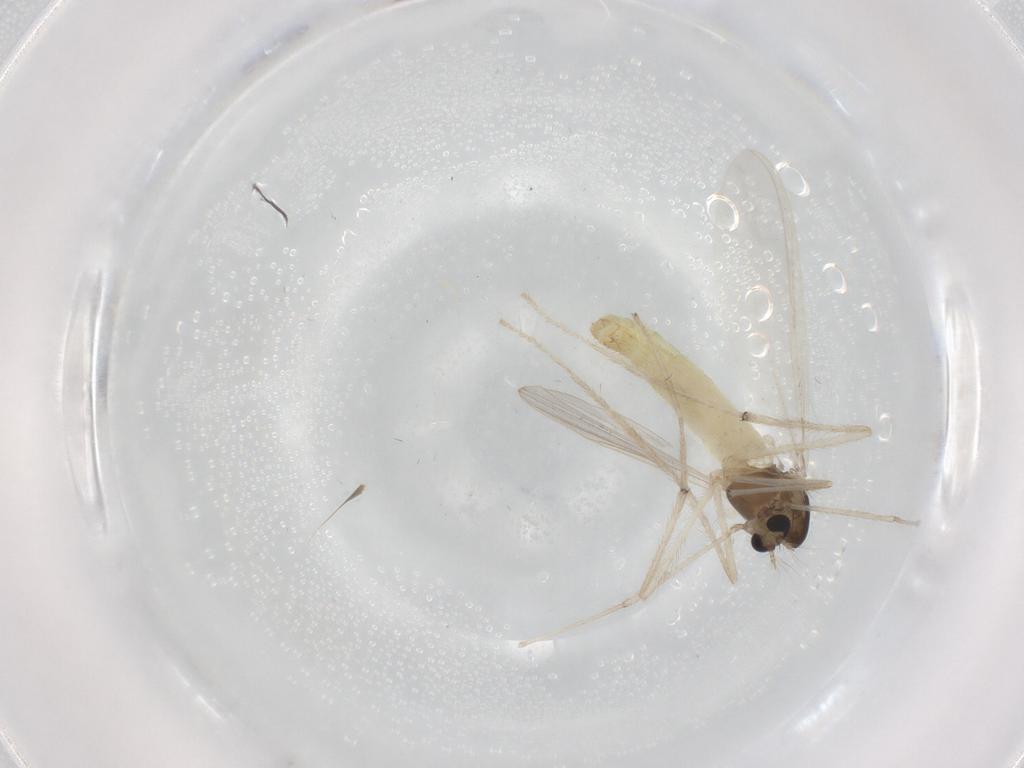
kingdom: Animalia
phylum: Arthropoda
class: Insecta
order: Diptera
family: Chironomidae
